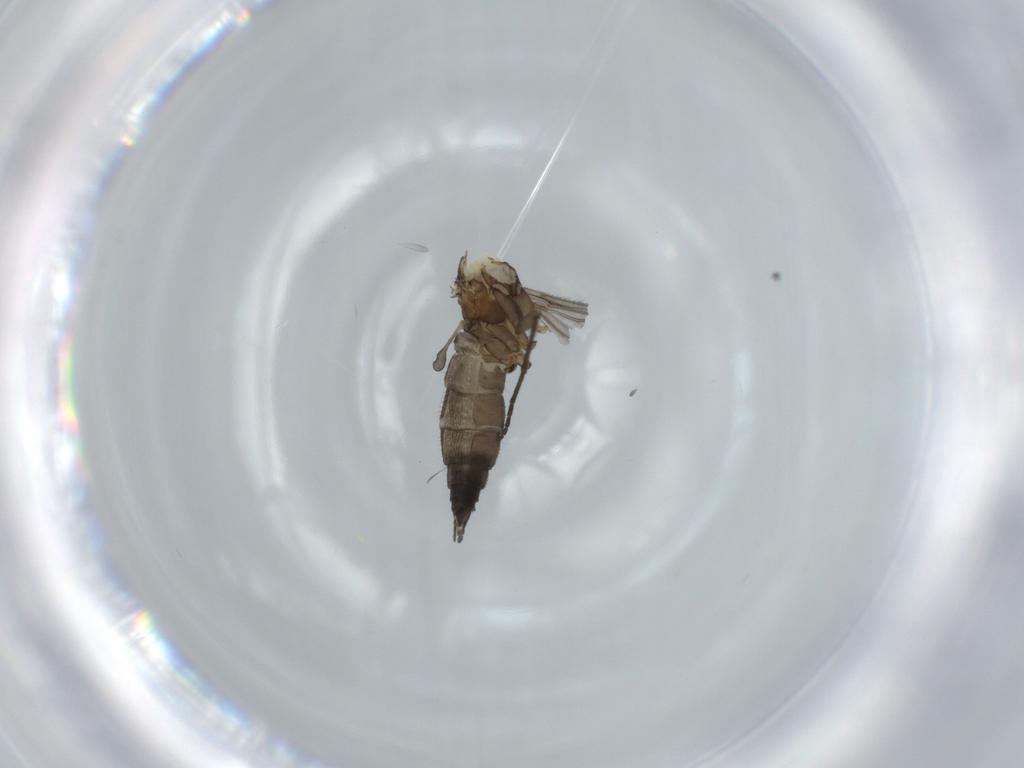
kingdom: Animalia
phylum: Arthropoda
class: Insecta
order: Diptera
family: Sciaridae
